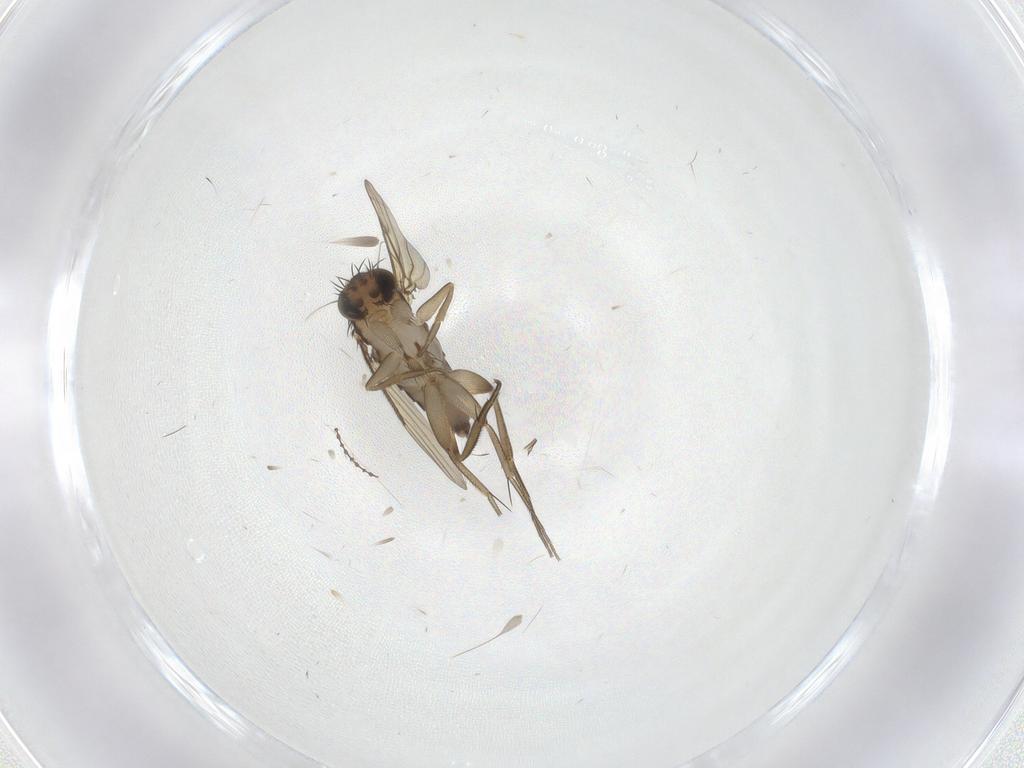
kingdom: Animalia
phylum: Arthropoda
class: Insecta
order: Diptera
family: Phoridae
